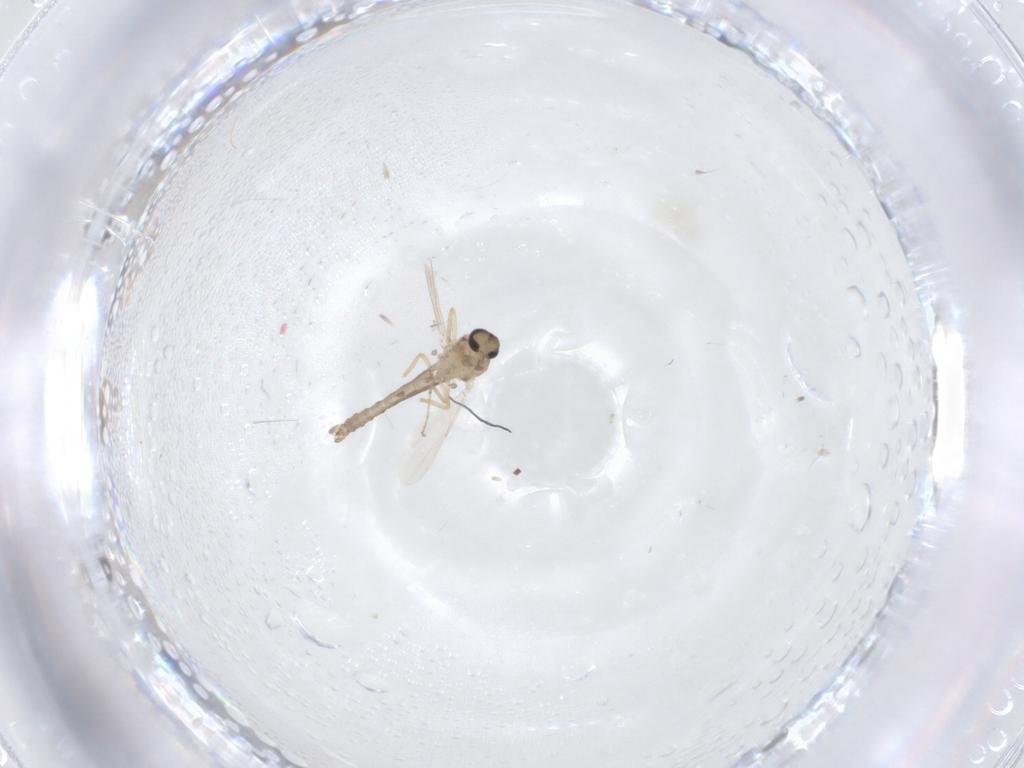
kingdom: Animalia
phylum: Arthropoda
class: Insecta
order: Diptera
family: Ceratopogonidae
